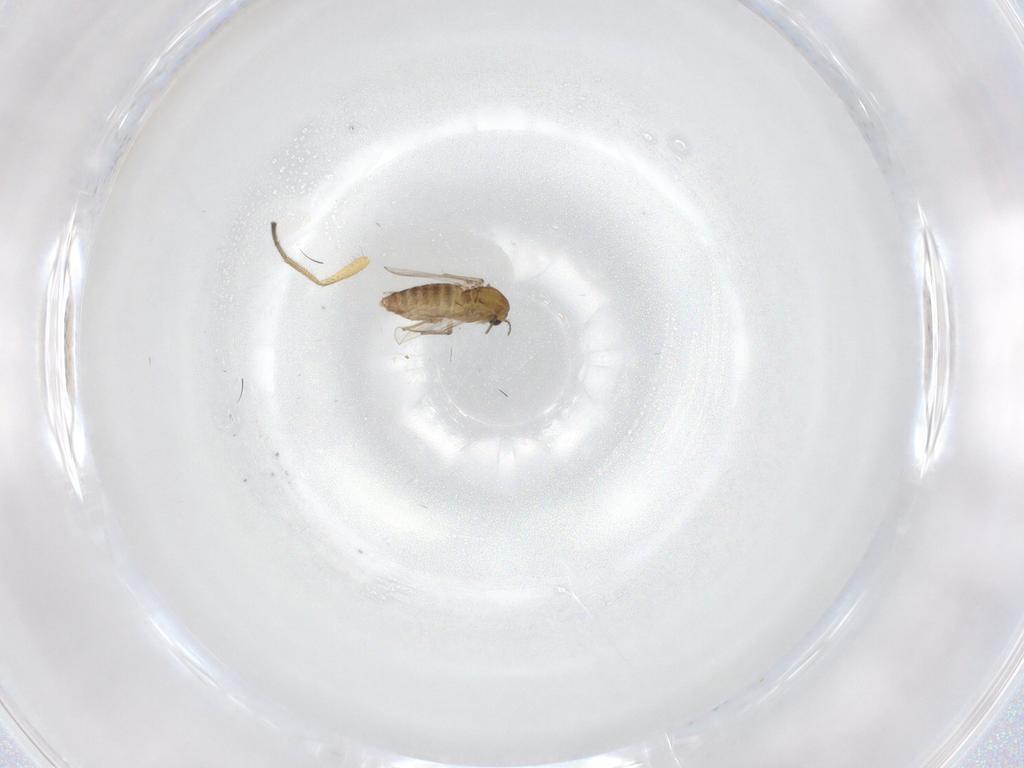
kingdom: Animalia
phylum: Arthropoda
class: Insecta
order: Diptera
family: Chironomidae
